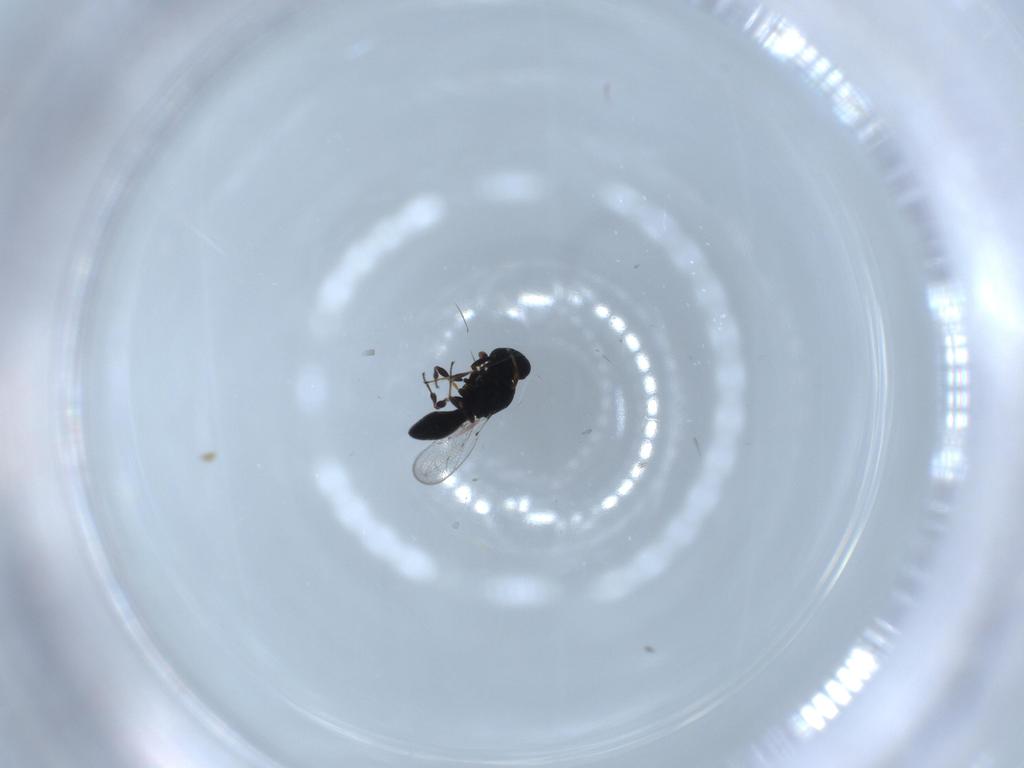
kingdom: Animalia
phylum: Arthropoda
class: Insecta
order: Hymenoptera
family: Platygastridae
